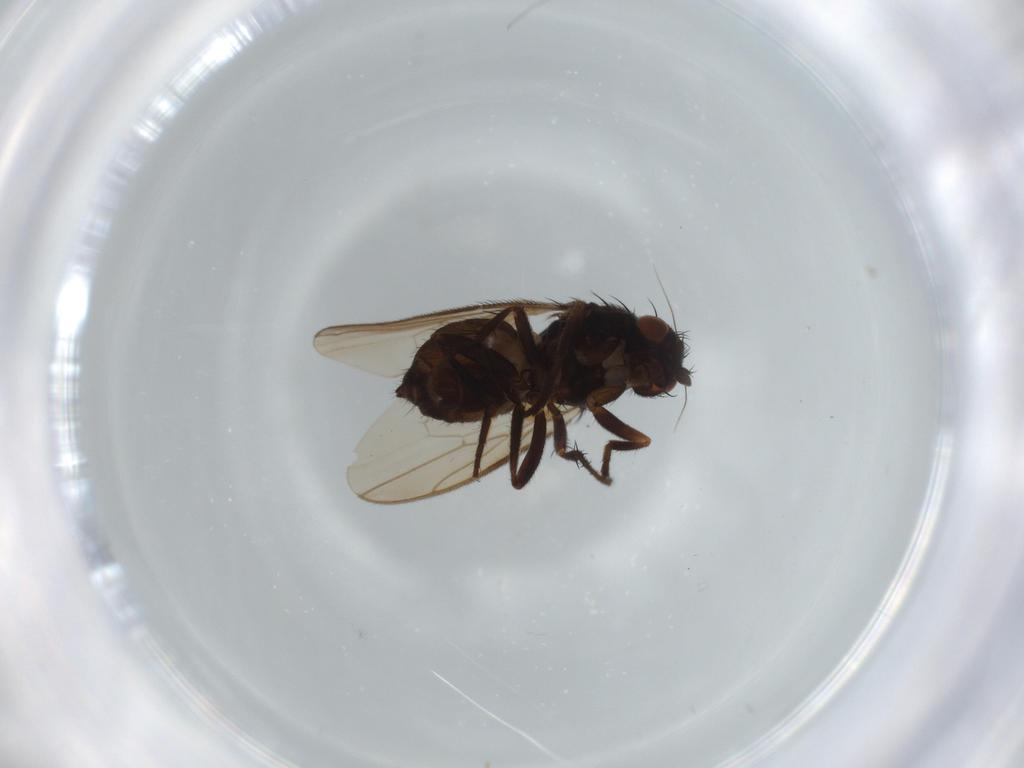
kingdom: Animalia
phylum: Arthropoda
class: Insecta
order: Diptera
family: Sphaeroceridae
